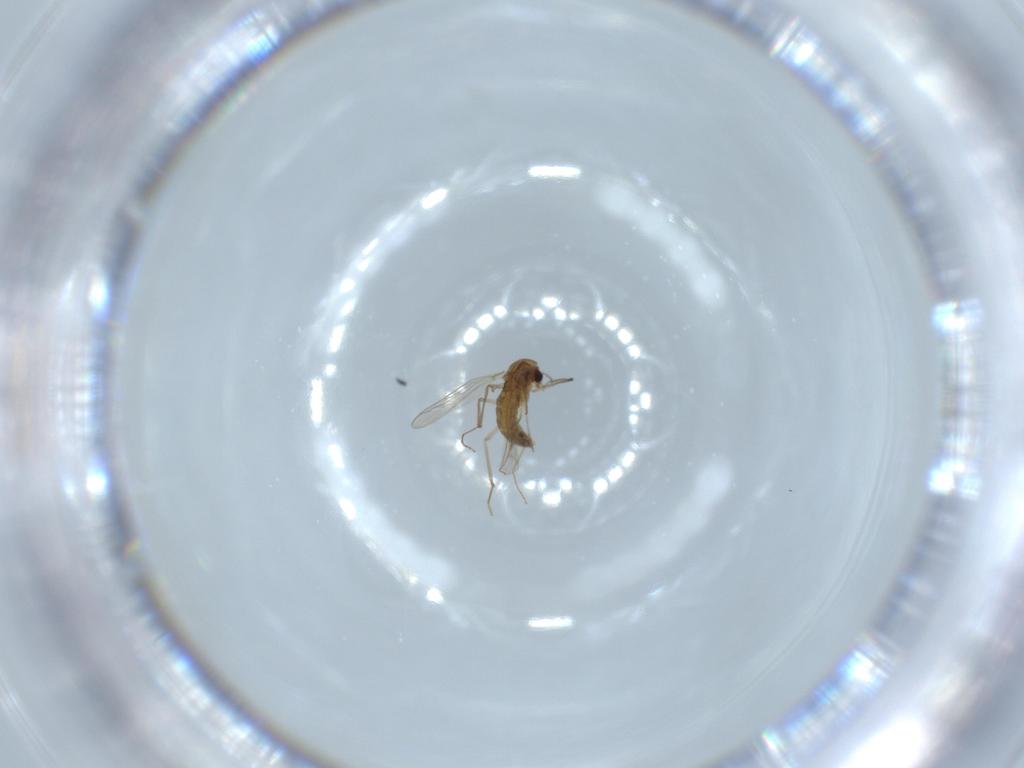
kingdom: Animalia
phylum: Arthropoda
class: Insecta
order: Diptera
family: Chironomidae
